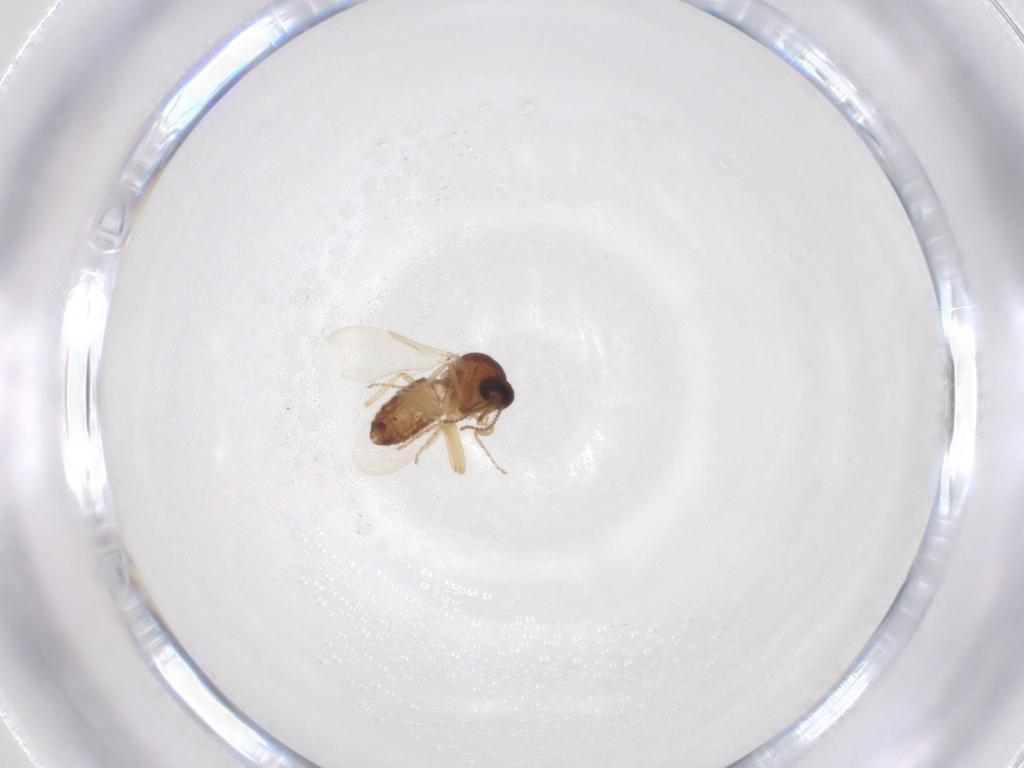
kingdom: Animalia
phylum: Arthropoda
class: Insecta
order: Diptera
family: Ceratopogonidae
